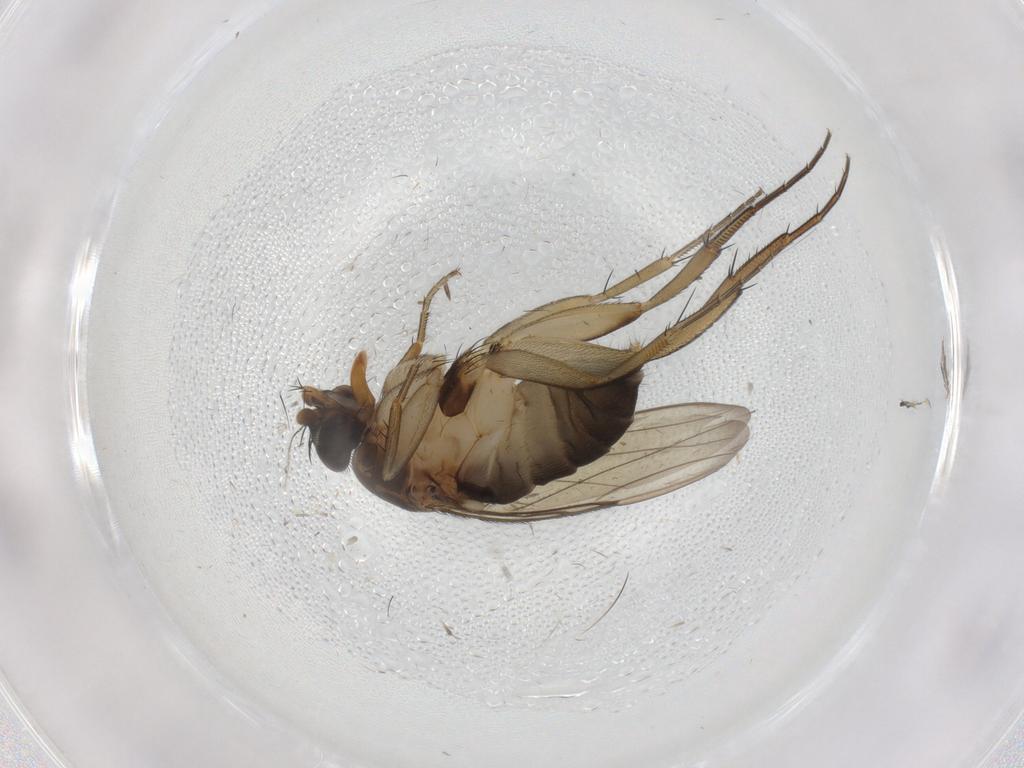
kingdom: Animalia
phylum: Arthropoda
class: Insecta
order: Diptera
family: Phoridae
